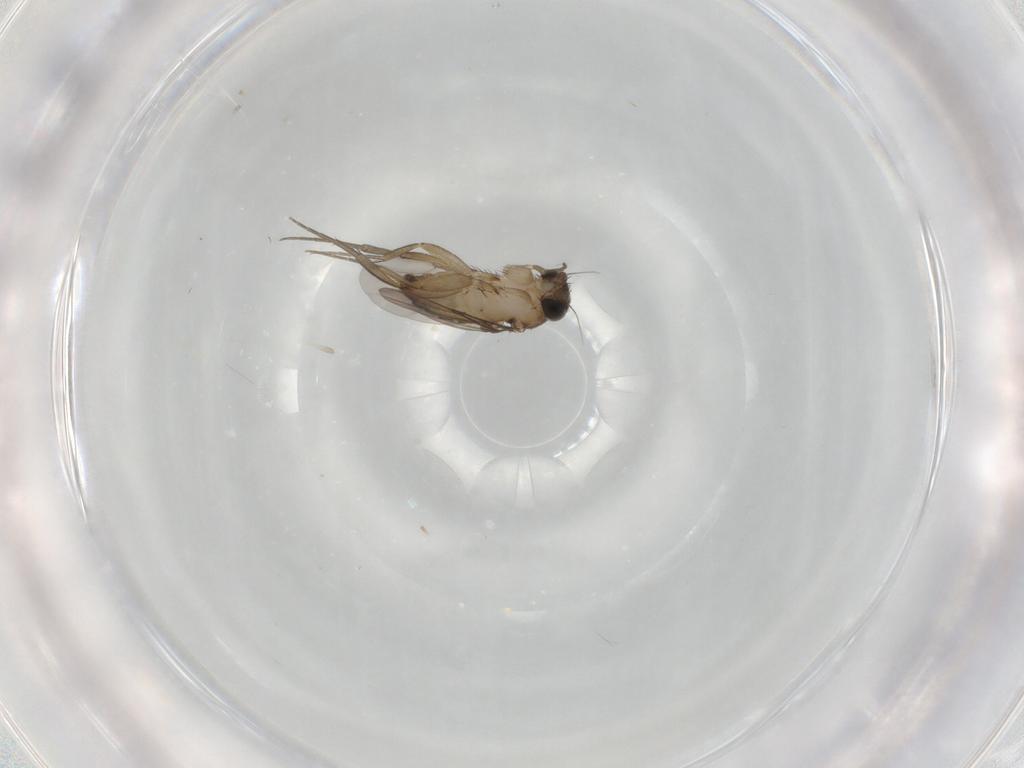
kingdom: Animalia
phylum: Arthropoda
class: Insecta
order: Diptera
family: Phoridae
